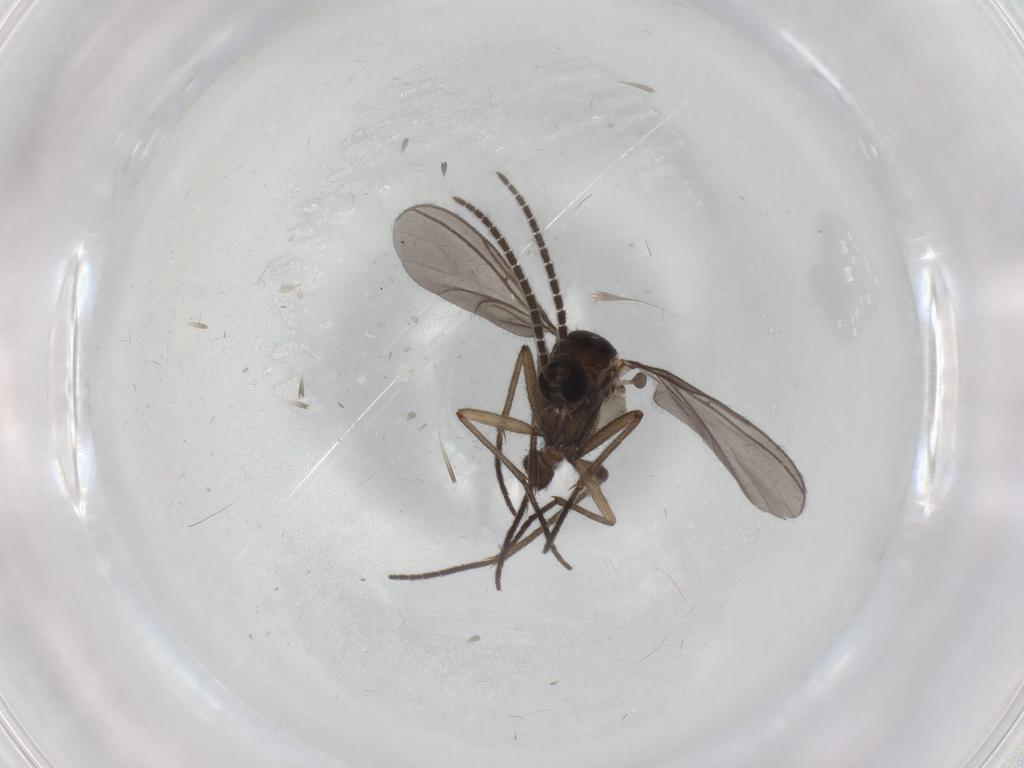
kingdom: Animalia
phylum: Arthropoda
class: Insecta
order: Diptera
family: Sciaridae
